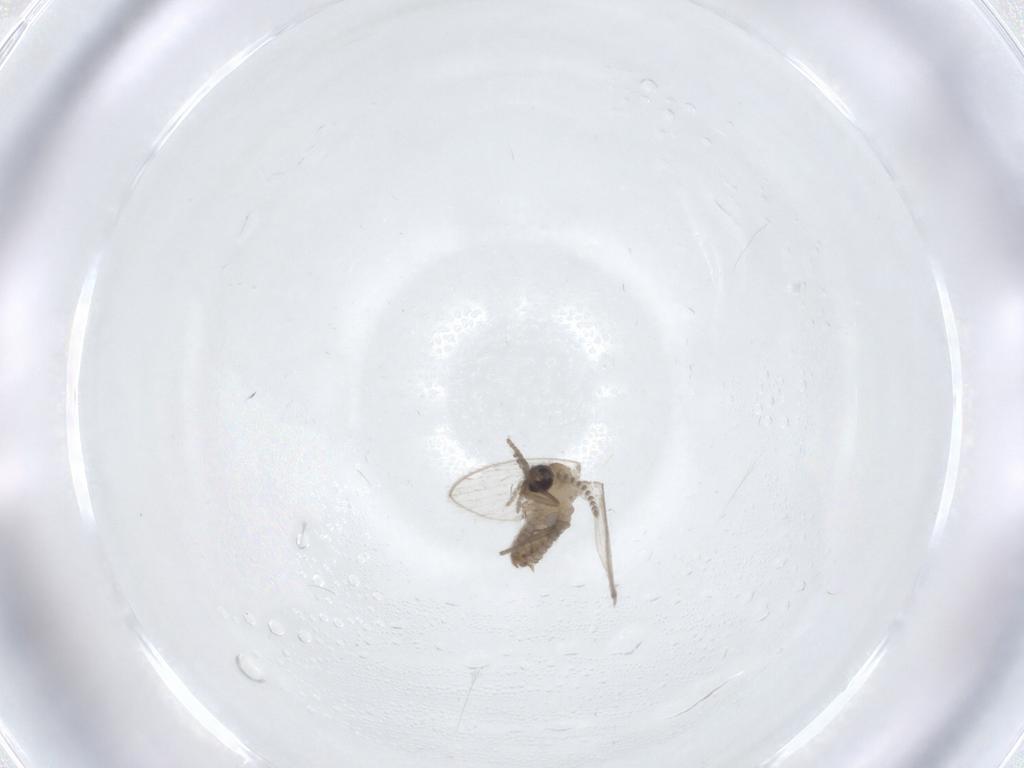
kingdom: Animalia
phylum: Arthropoda
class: Insecta
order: Diptera
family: Psychodidae
